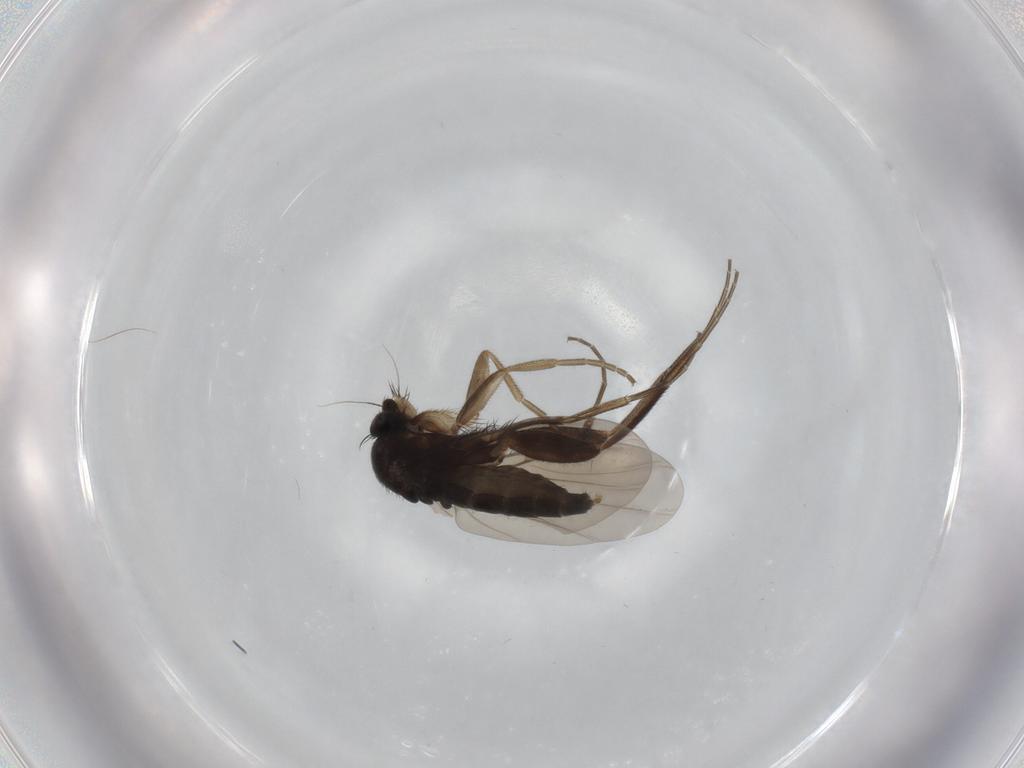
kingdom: Animalia
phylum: Arthropoda
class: Insecta
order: Diptera
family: Phoridae
